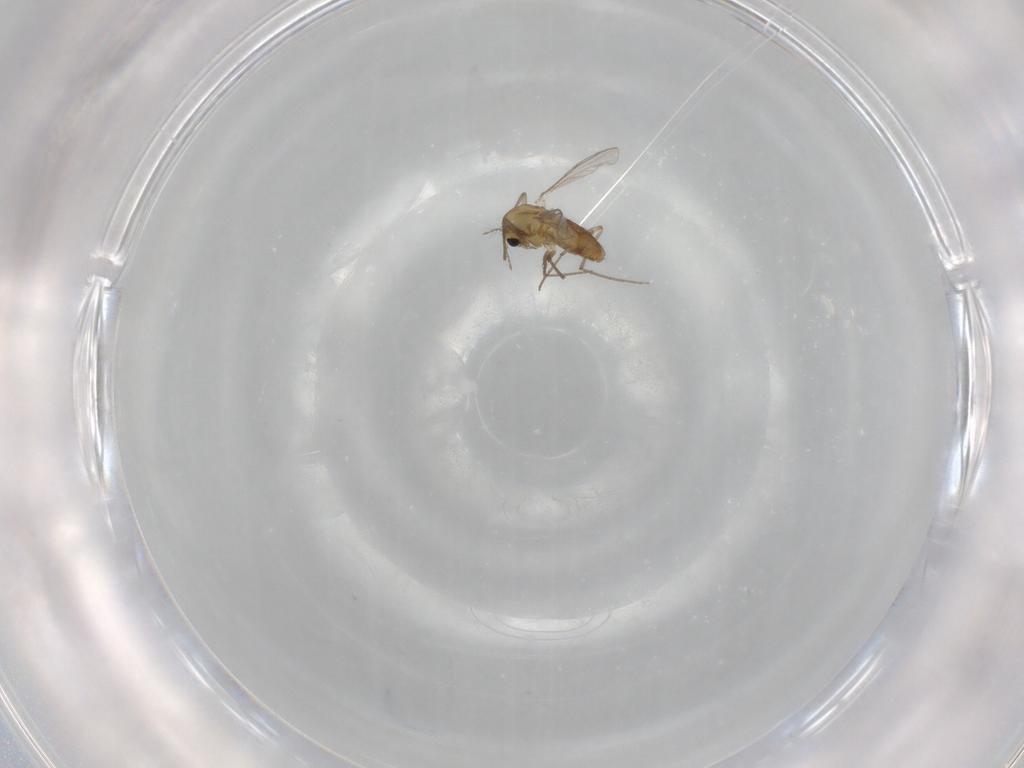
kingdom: Animalia
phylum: Arthropoda
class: Insecta
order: Diptera
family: Chironomidae
